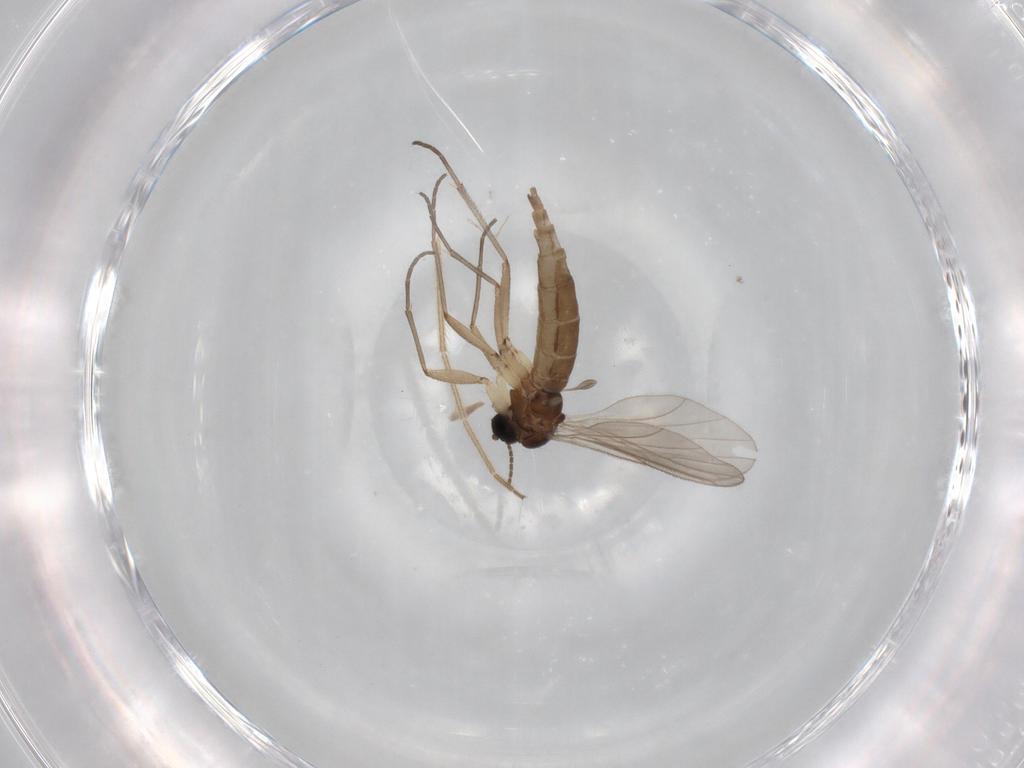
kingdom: Animalia
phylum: Arthropoda
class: Insecta
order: Diptera
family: Chironomidae
